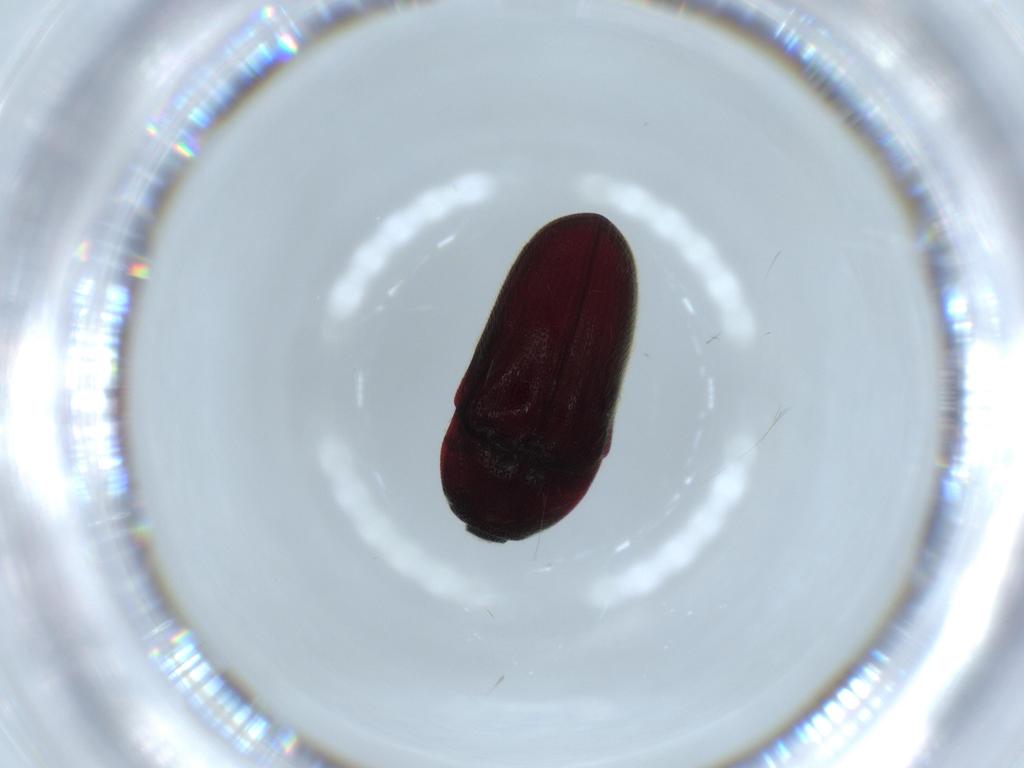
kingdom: Animalia
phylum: Arthropoda
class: Insecta
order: Coleoptera
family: Throscidae
